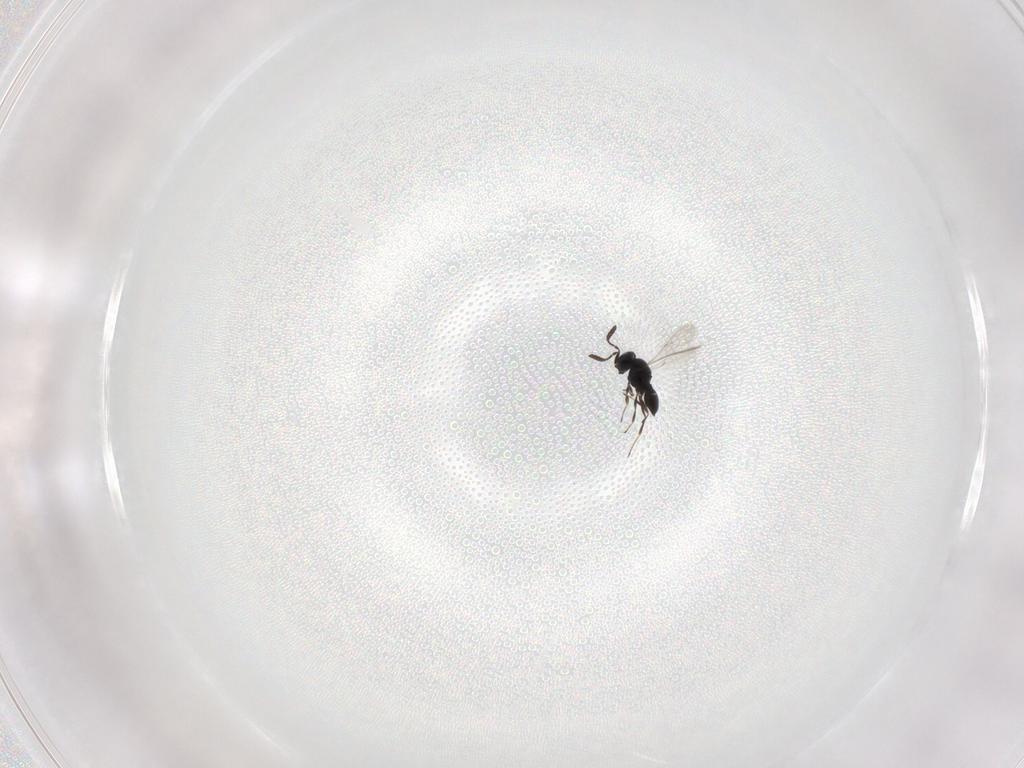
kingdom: Animalia
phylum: Arthropoda
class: Insecta
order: Hymenoptera
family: Scelionidae
